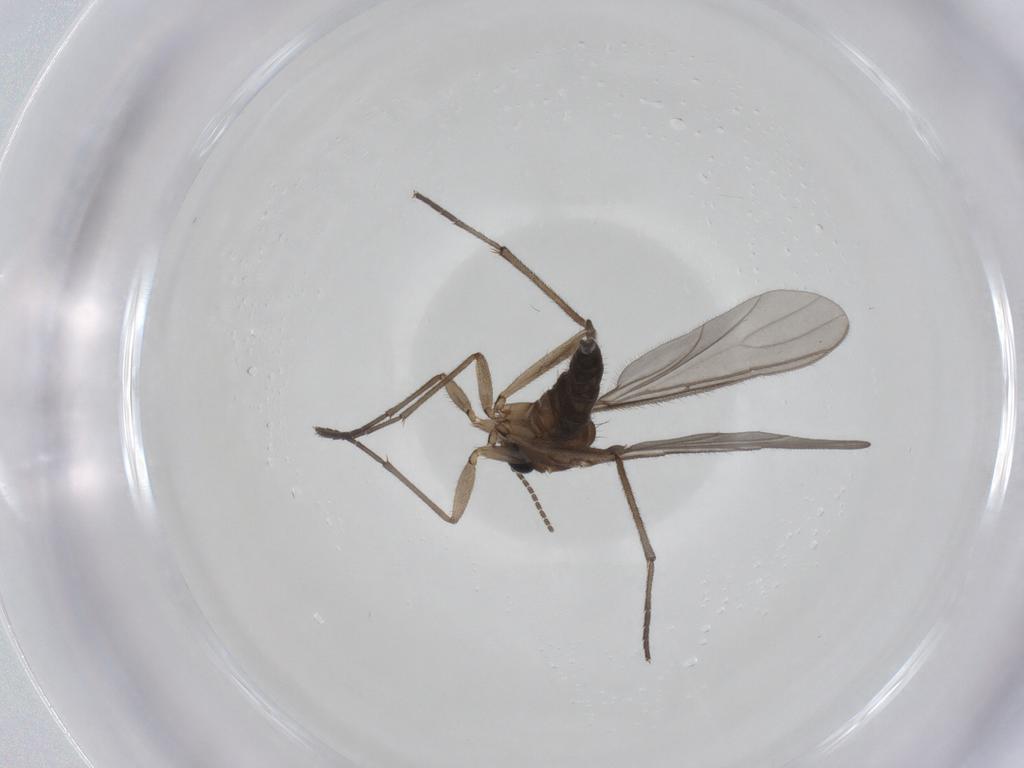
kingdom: Animalia
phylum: Arthropoda
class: Insecta
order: Diptera
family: Sciaridae
